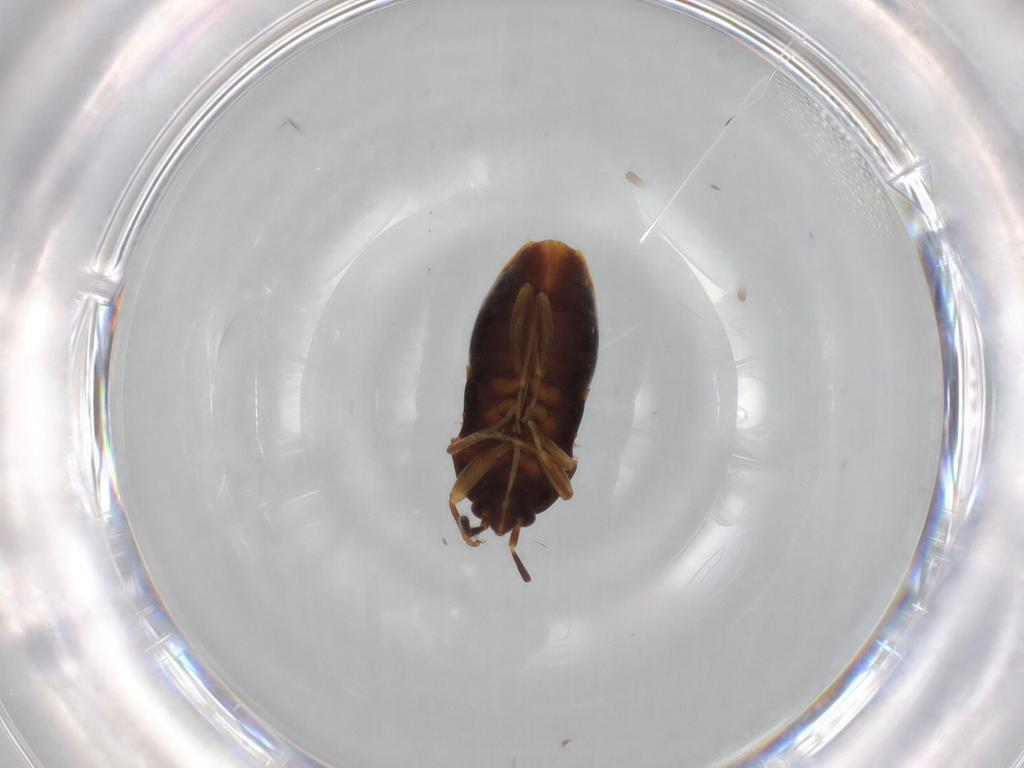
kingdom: Animalia
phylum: Arthropoda
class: Insecta
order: Hemiptera
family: Rhyparochromidae
